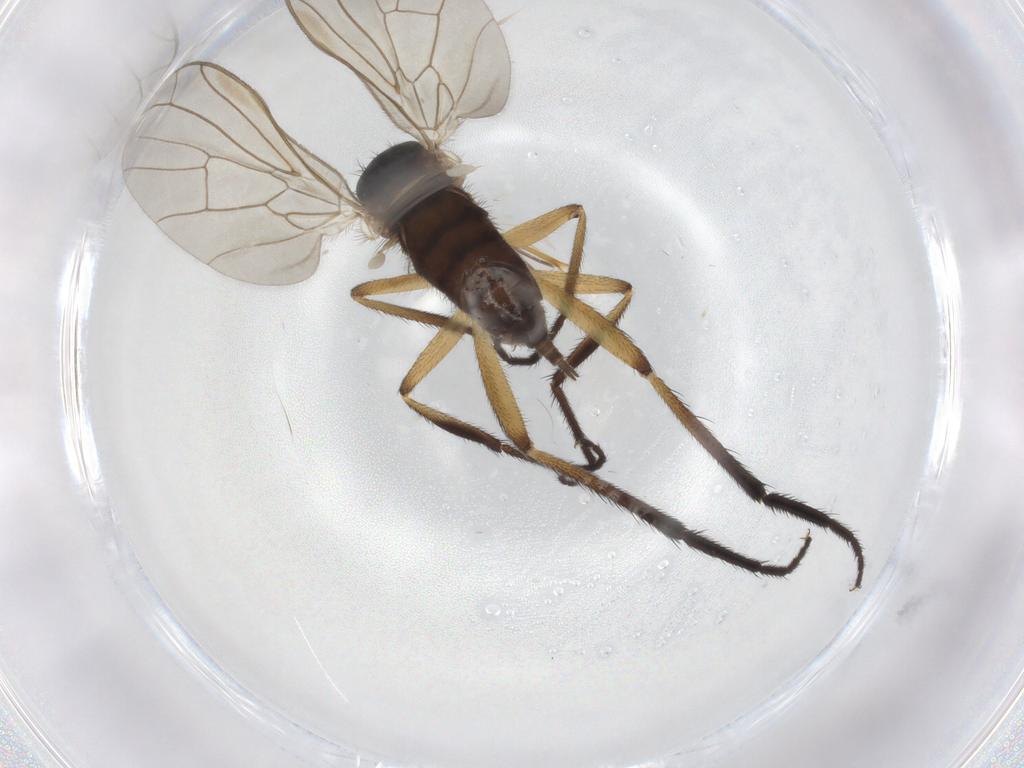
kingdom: Animalia
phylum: Arthropoda
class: Insecta
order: Diptera
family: Empididae
